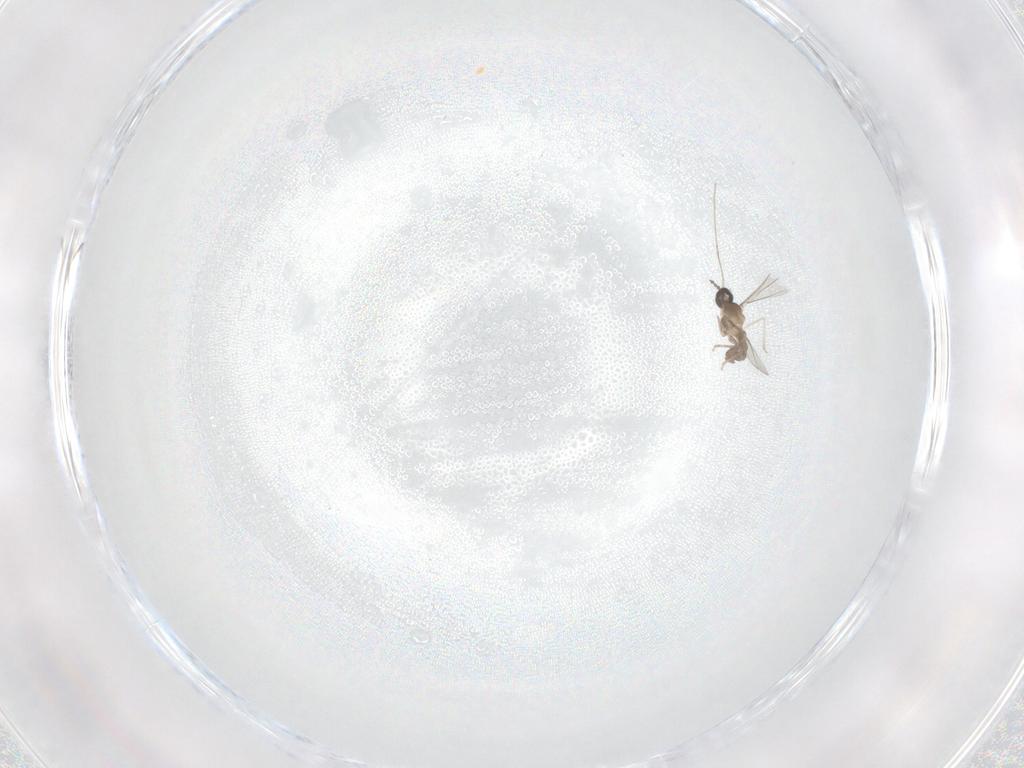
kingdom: Animalia
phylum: Arthropoda
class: Insecta
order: Diptera
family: Cecidomyiidae
